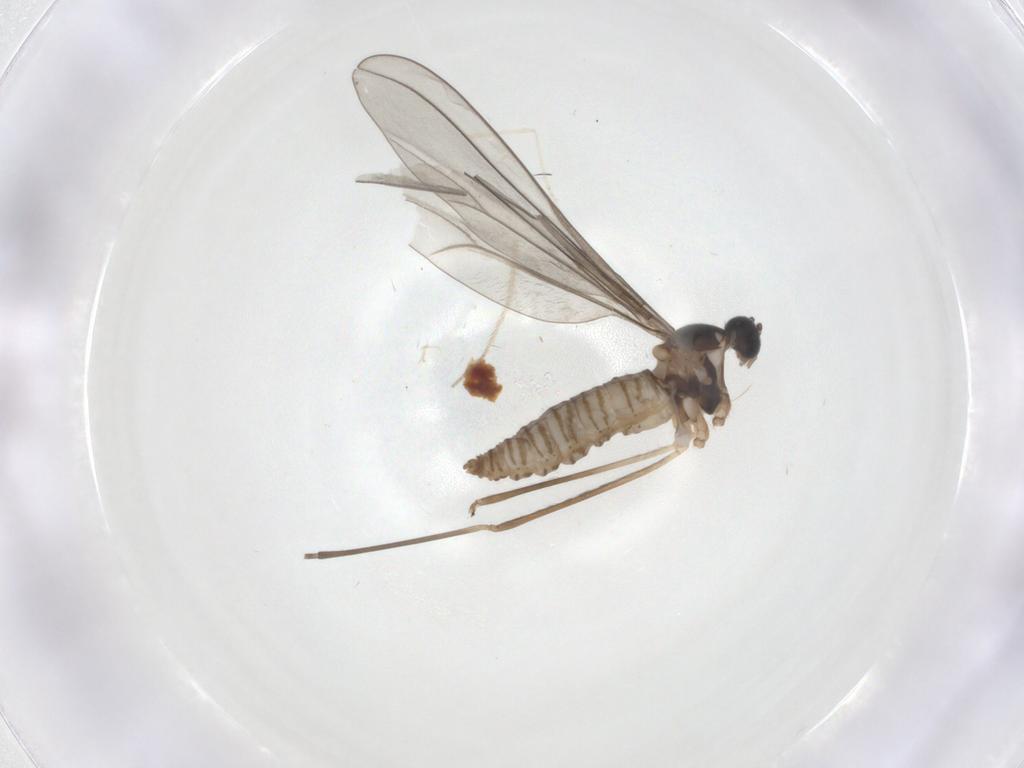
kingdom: Animalia
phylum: Arthropoda
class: Insecta
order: Diptera
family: Cecidomyiidae
